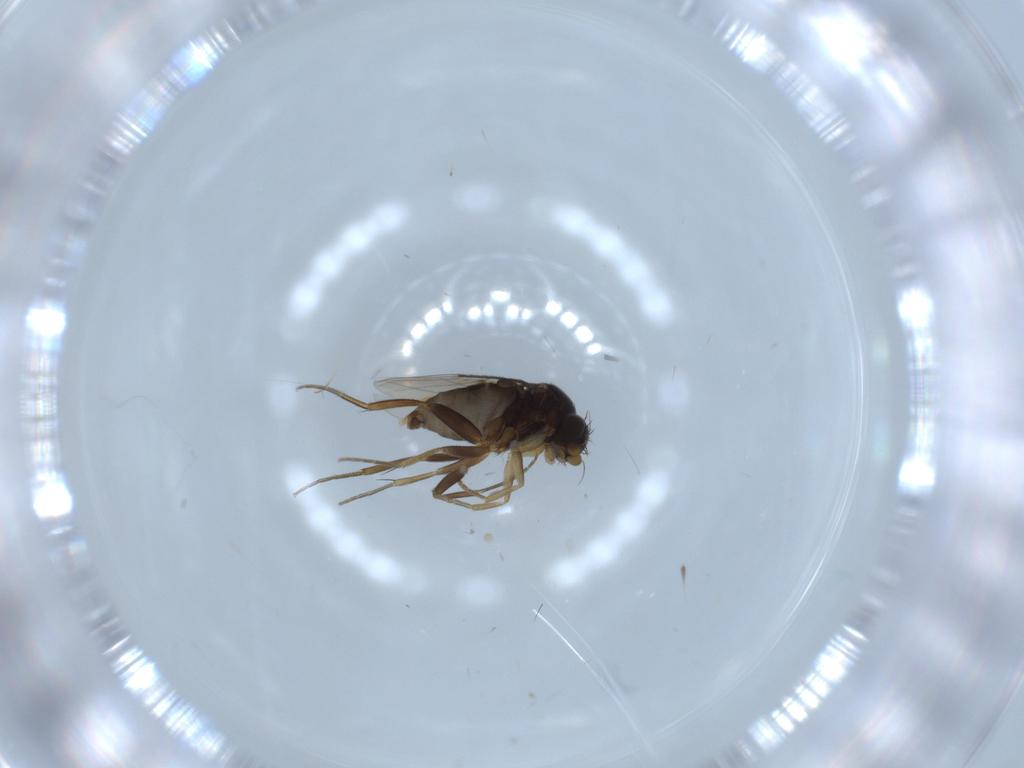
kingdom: Animalia
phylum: Arthropoda
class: Insecta
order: Diptera
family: Phoridae
